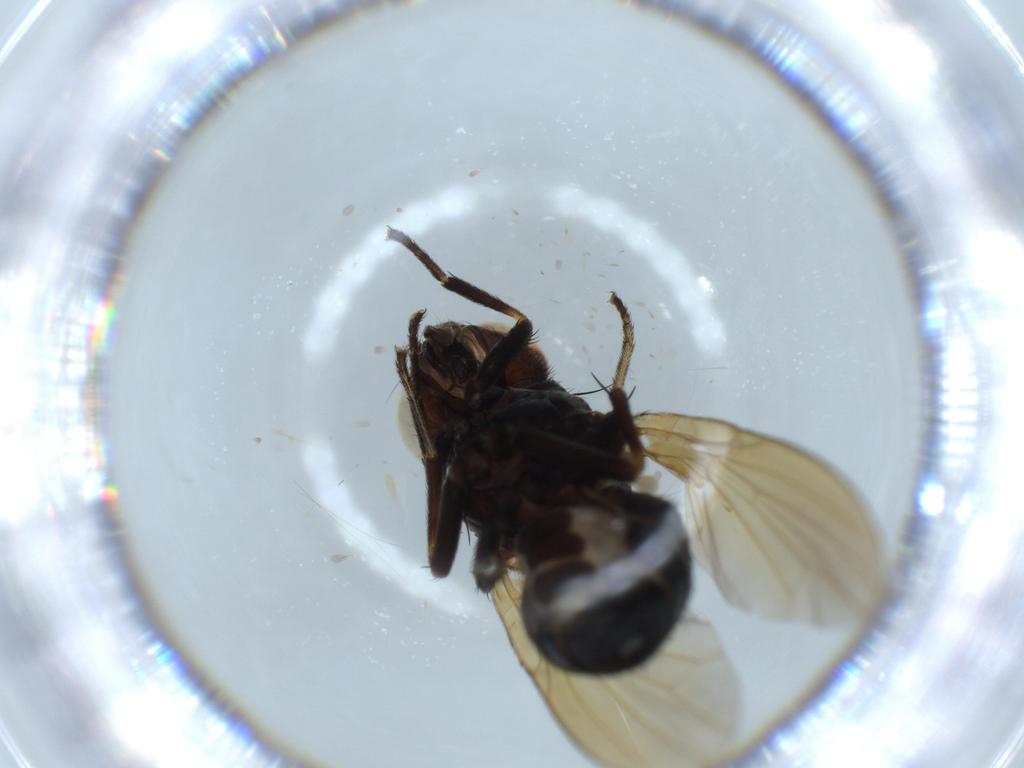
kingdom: Animalia
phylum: Arthropoda
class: Insecta
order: Diptera
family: Lauxaniidae
